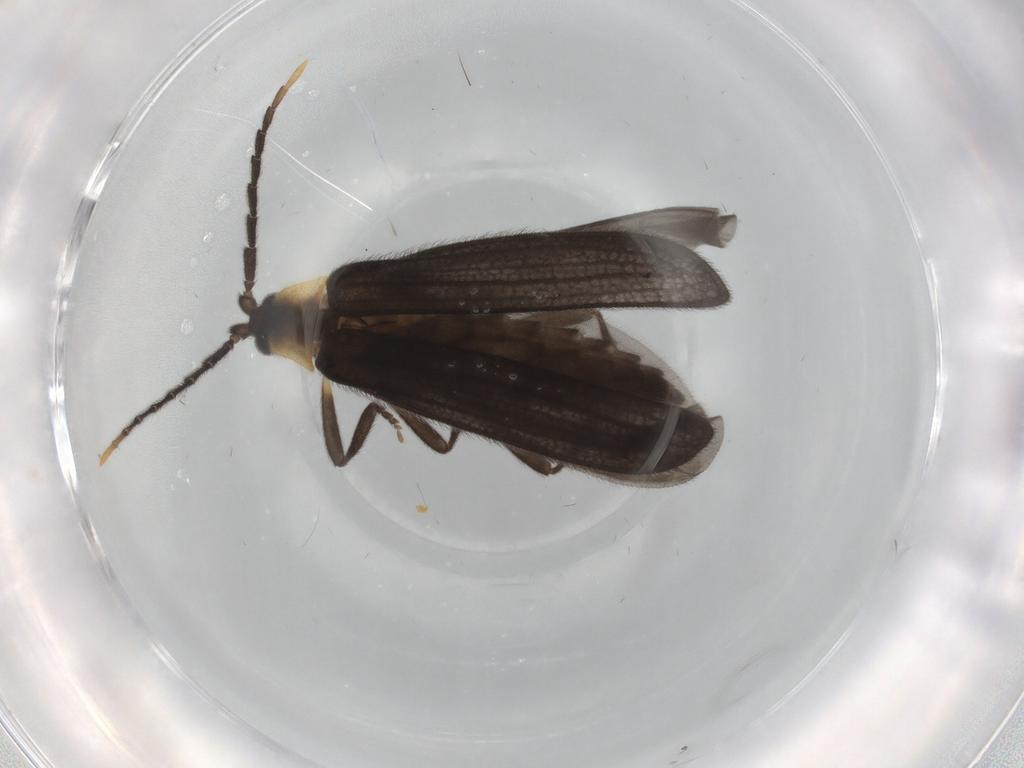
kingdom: Animalia
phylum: Arthropoda
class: Insecta
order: Coleoptera
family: Lycidae
